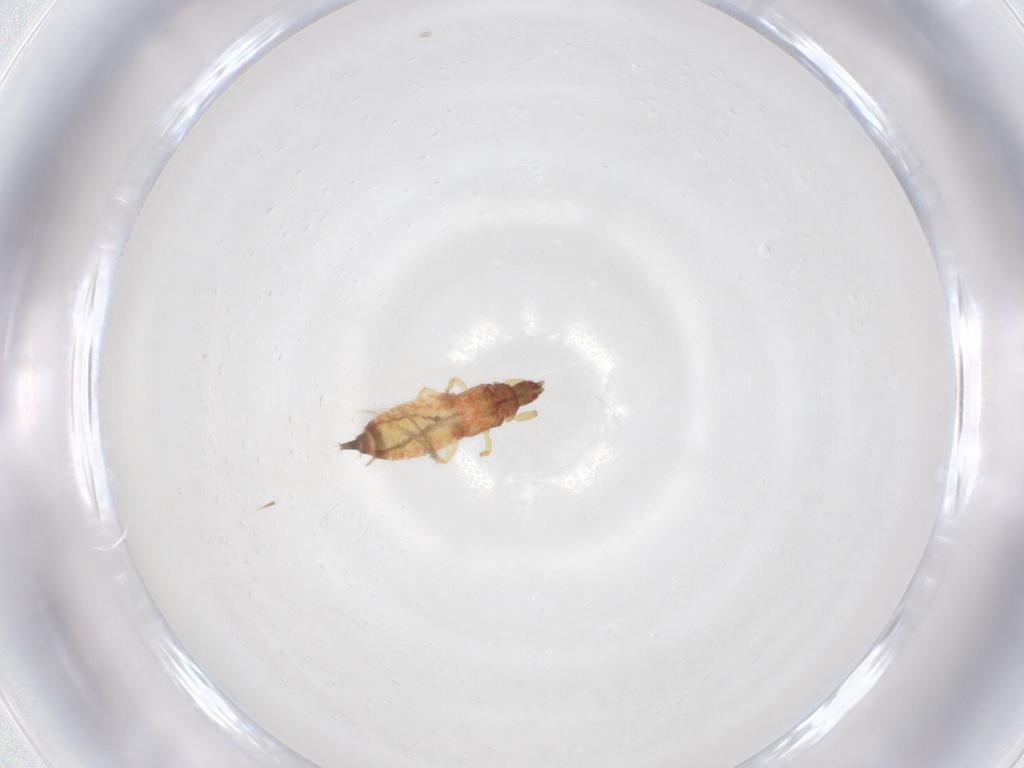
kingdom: Animalia
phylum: Arthropoda
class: Insecta
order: Thysanoptera
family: Phlaeothripidae
